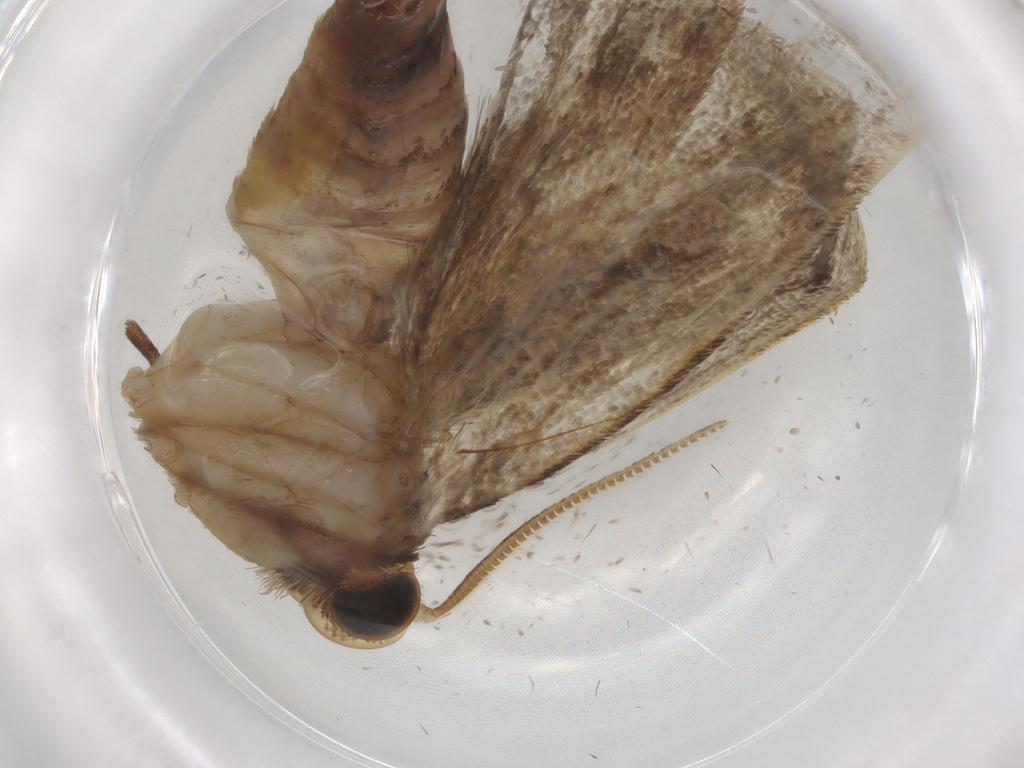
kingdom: Animalia
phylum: Arthropoda
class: Insecta
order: Lepidoptera
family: Tineidae
